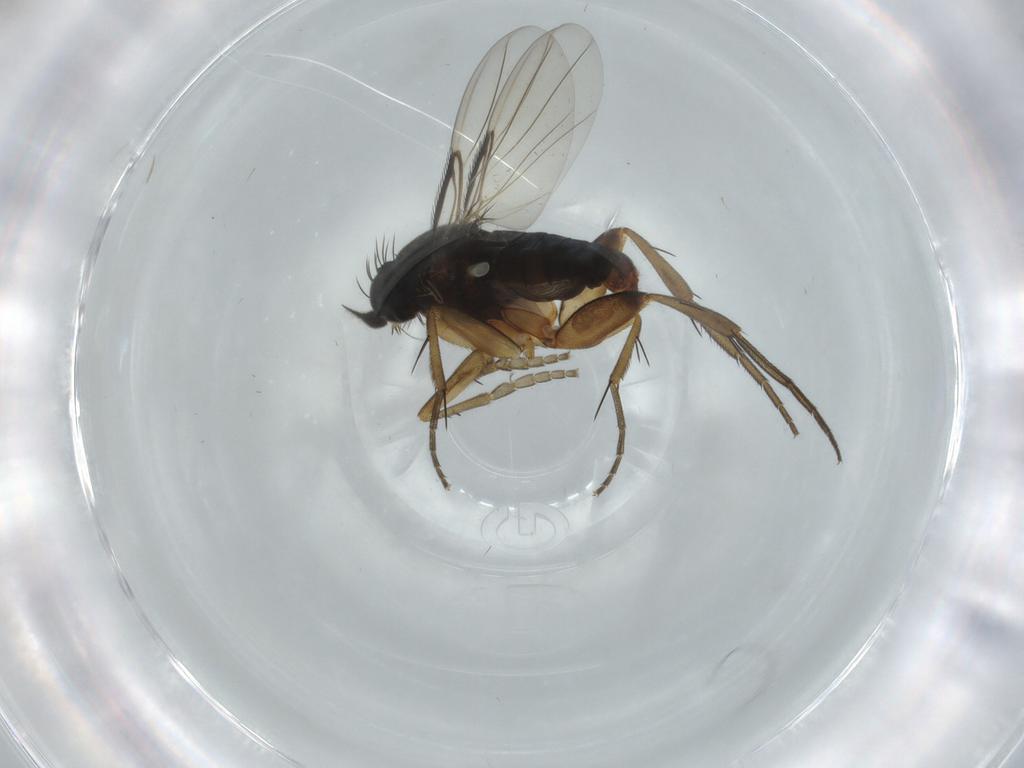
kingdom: Animalia
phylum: Arthropoda
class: Insecta
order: Diptera
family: Phoridae
